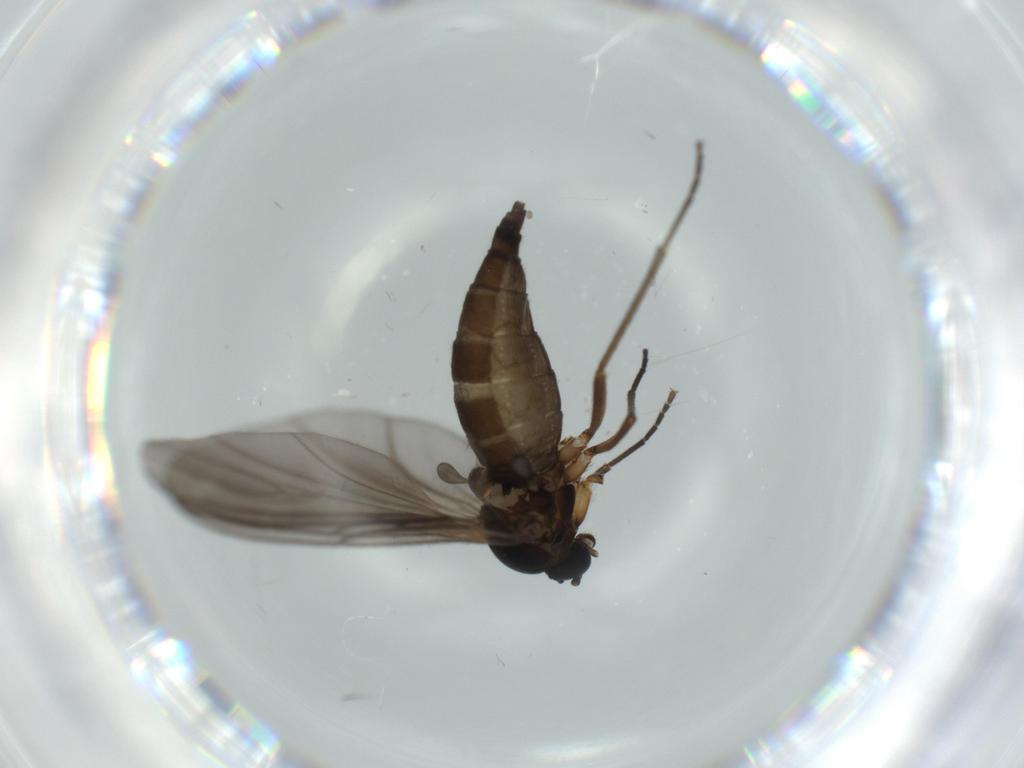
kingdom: Animalia
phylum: Arthropoda
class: Insecta
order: Diptera
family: Sciaridae
